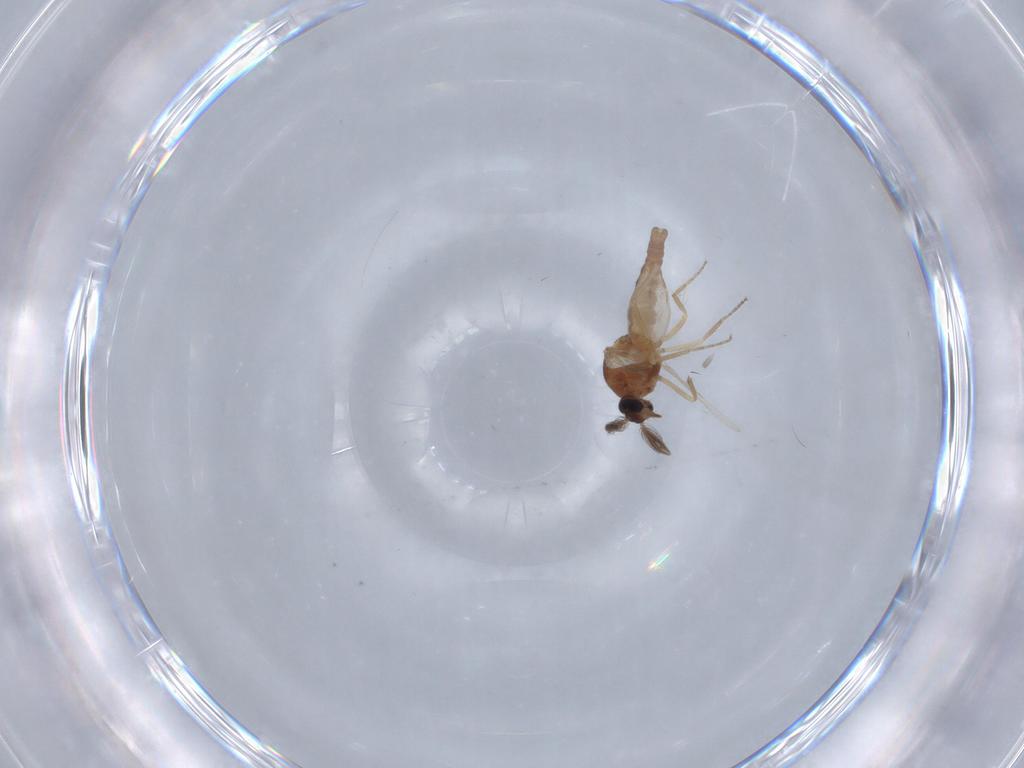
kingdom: Animalia
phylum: Arthropoda
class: Insecta
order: Diptera
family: Ceratopogonidae
